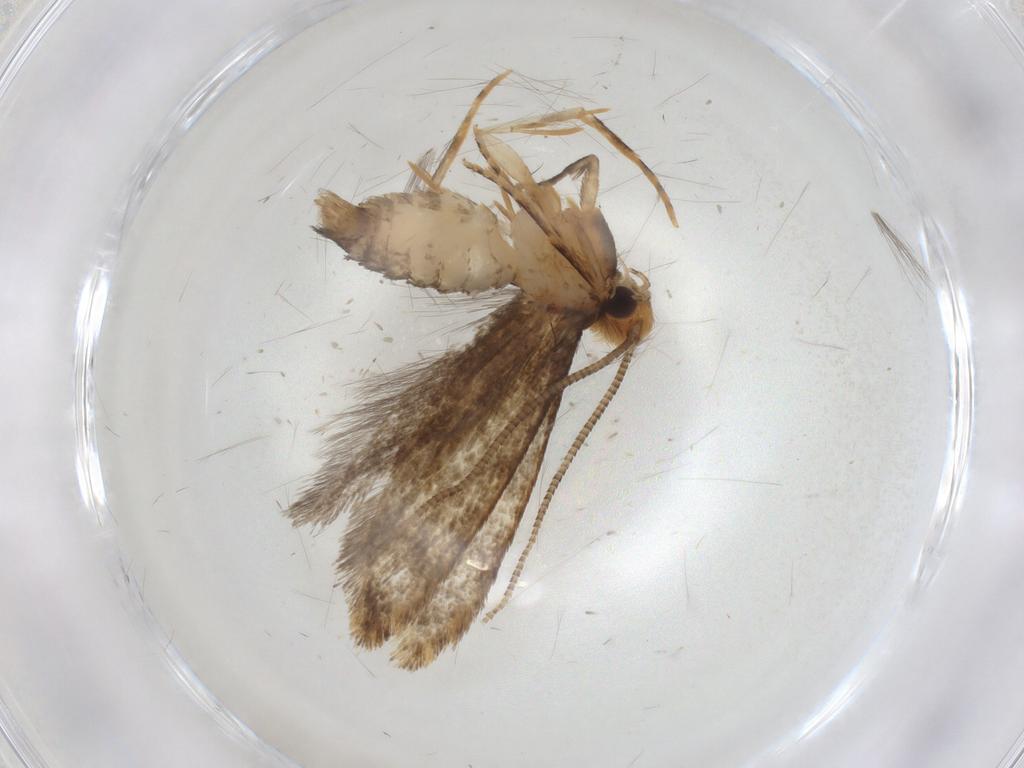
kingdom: Animalia
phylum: Arthropoda
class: Insecta
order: Lepidoptera
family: Tineidae
